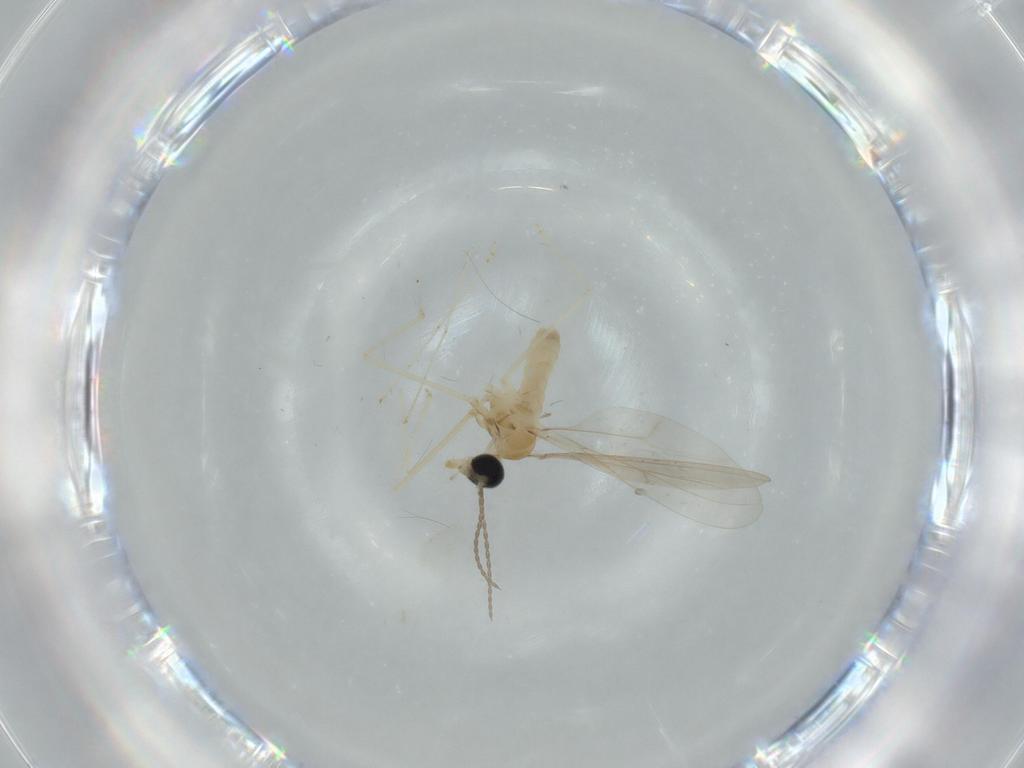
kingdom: Animalia
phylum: Arthropoda
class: Insecta
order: Diptera
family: Cecidomyiidae
